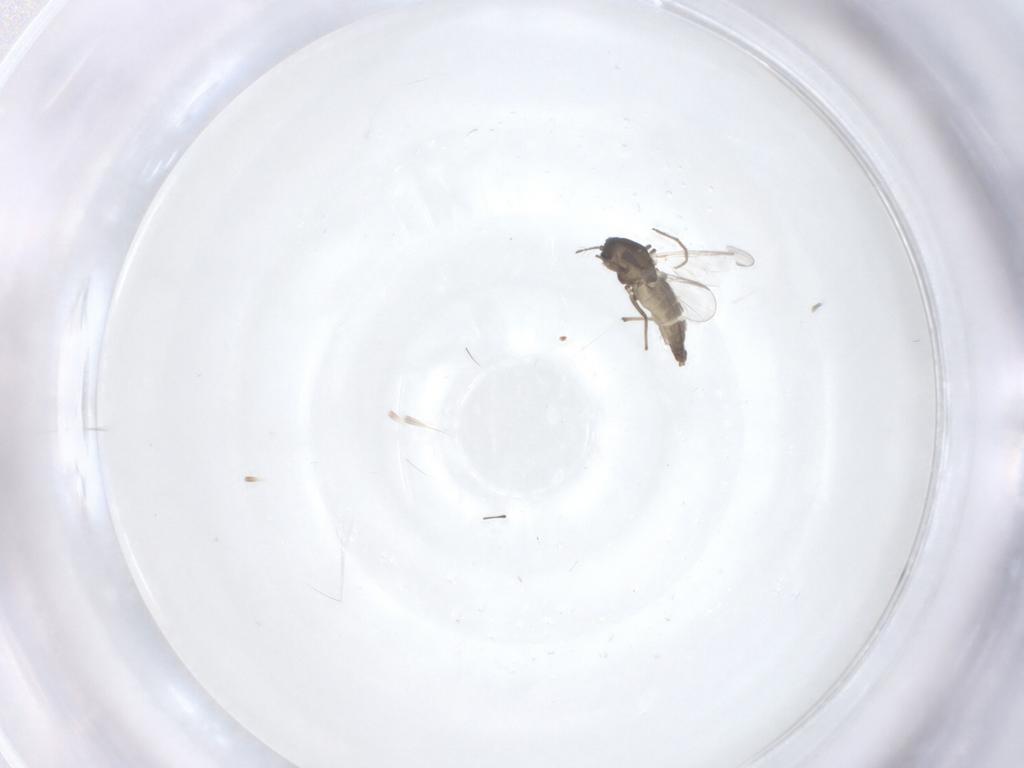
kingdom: Animalia
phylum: Arthropoda
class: Insecta
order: Diptera
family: Chironomidae
